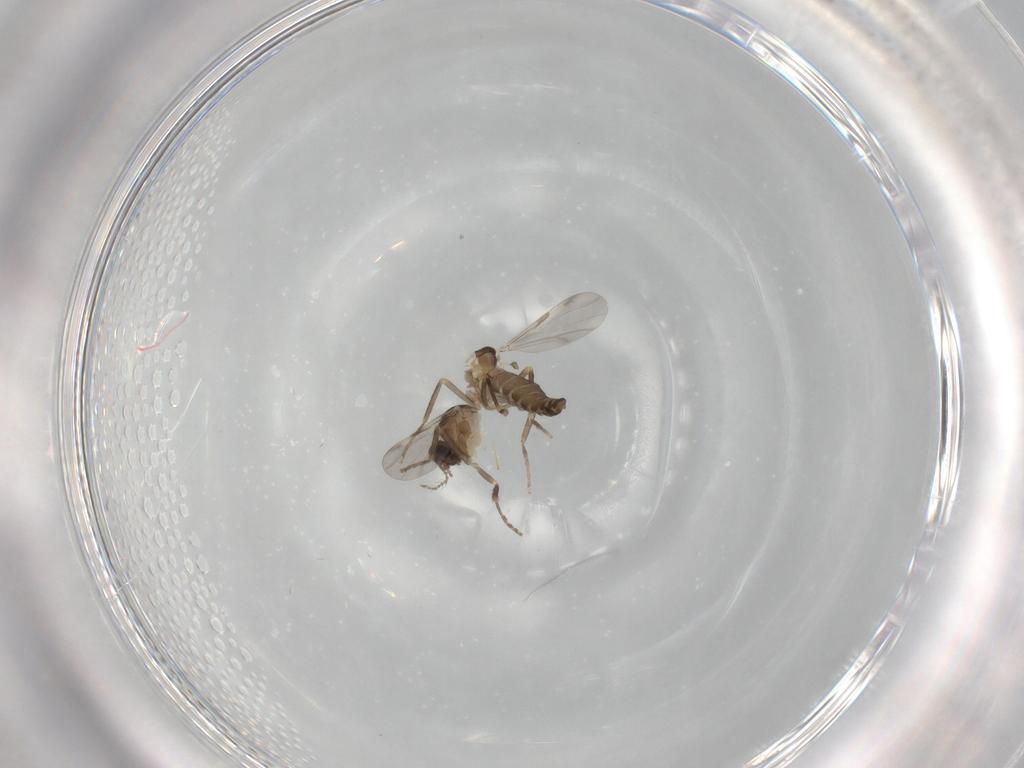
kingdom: Animalia
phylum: Arthropoda
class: Insecta
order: Diptera
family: Ceratopogonidae
